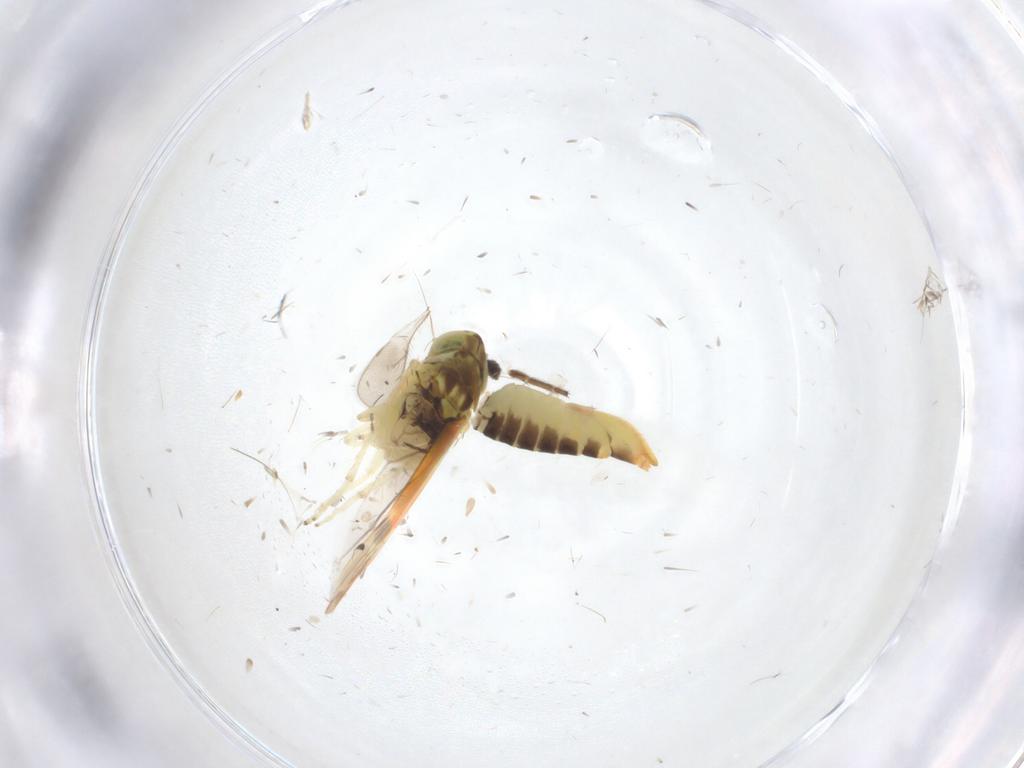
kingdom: Animalia
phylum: Arthropoda
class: Insecta
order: Hemiptera
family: Cicadellidae
